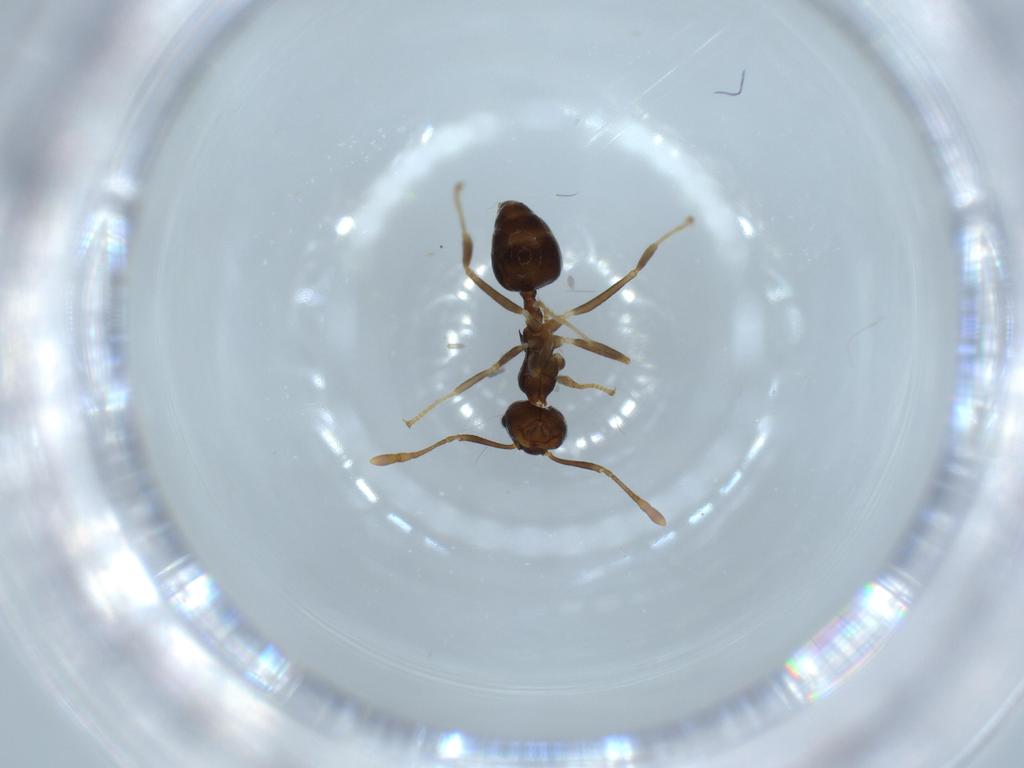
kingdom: Animalia
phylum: Arthropoda
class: Insecta
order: Hymenoptera
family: Formicidae
